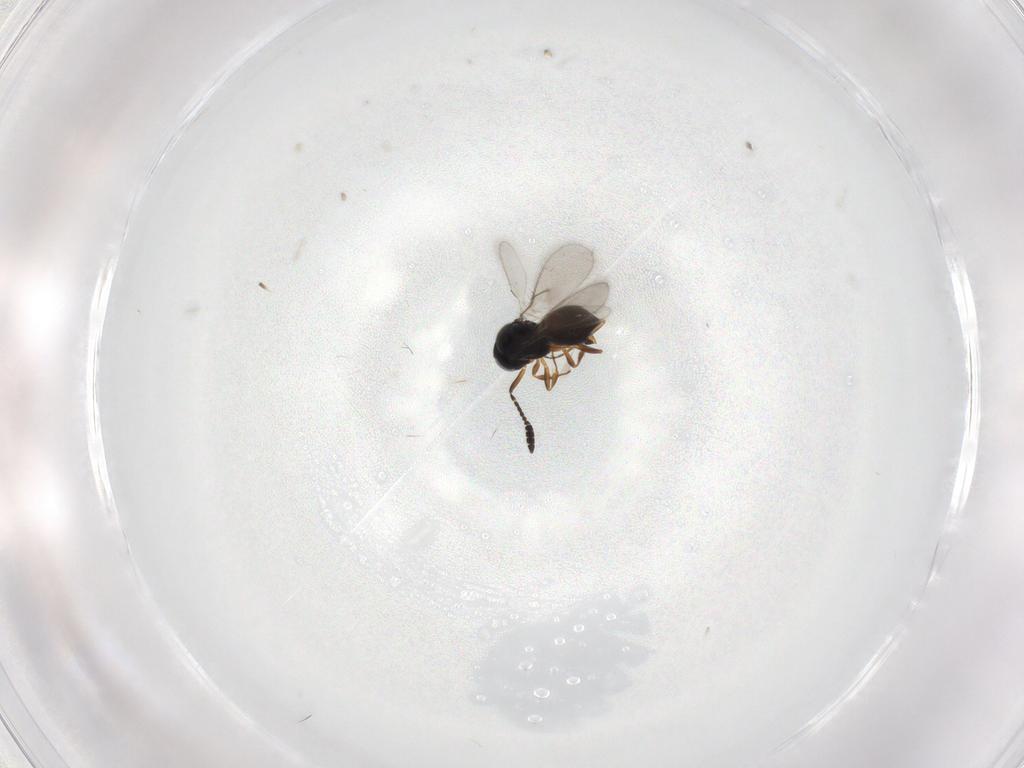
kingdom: Animalia
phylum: Arthropoda
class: Insecta
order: Hymenoptera
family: Scelionidae
